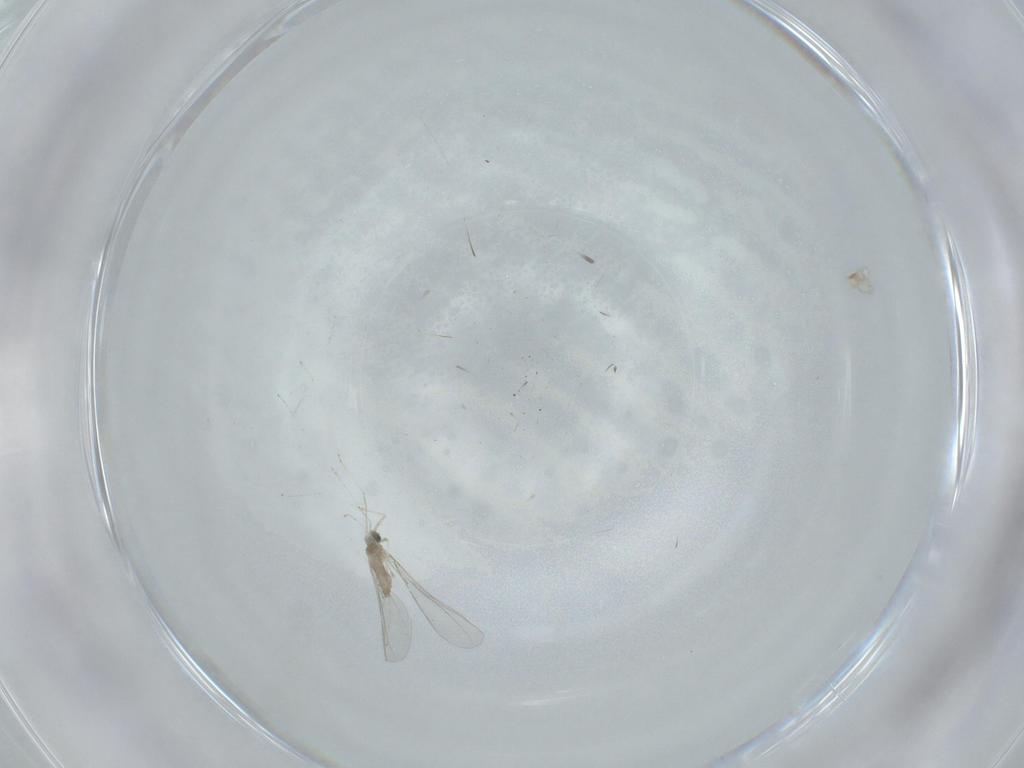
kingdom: Animalia
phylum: Arthropoda
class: Insecta
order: Diptera
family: Cecidomyiidae
